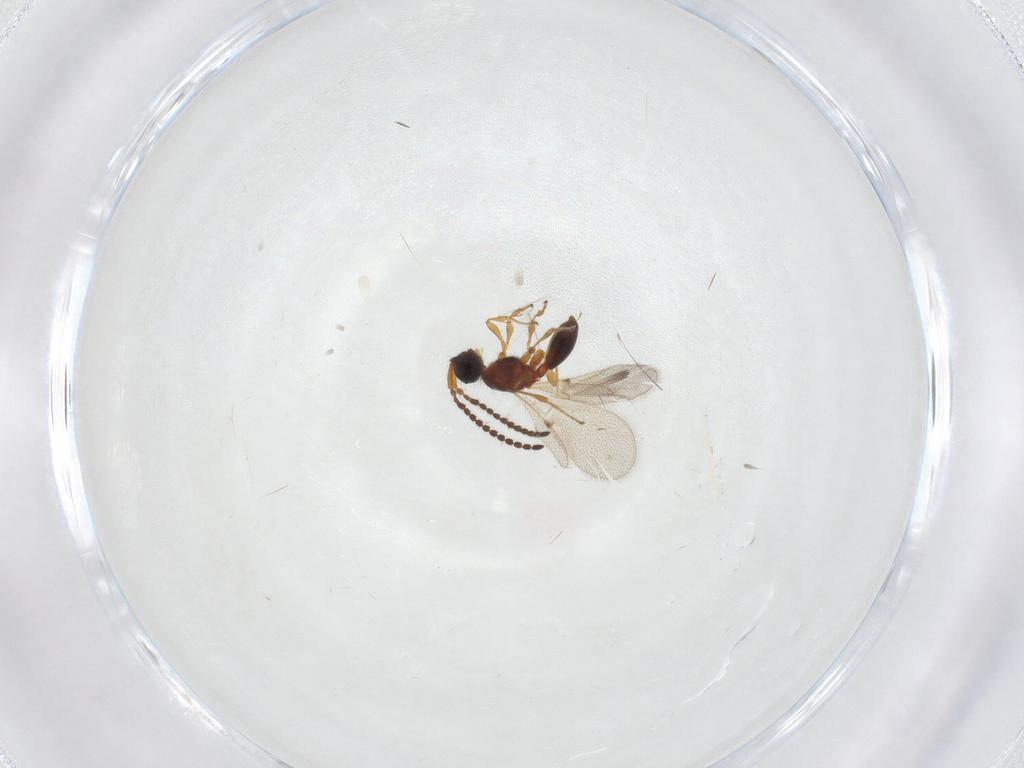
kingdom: Animalia
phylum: Arthropoda
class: Insecta
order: Hymenoptera
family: Diapriidae
